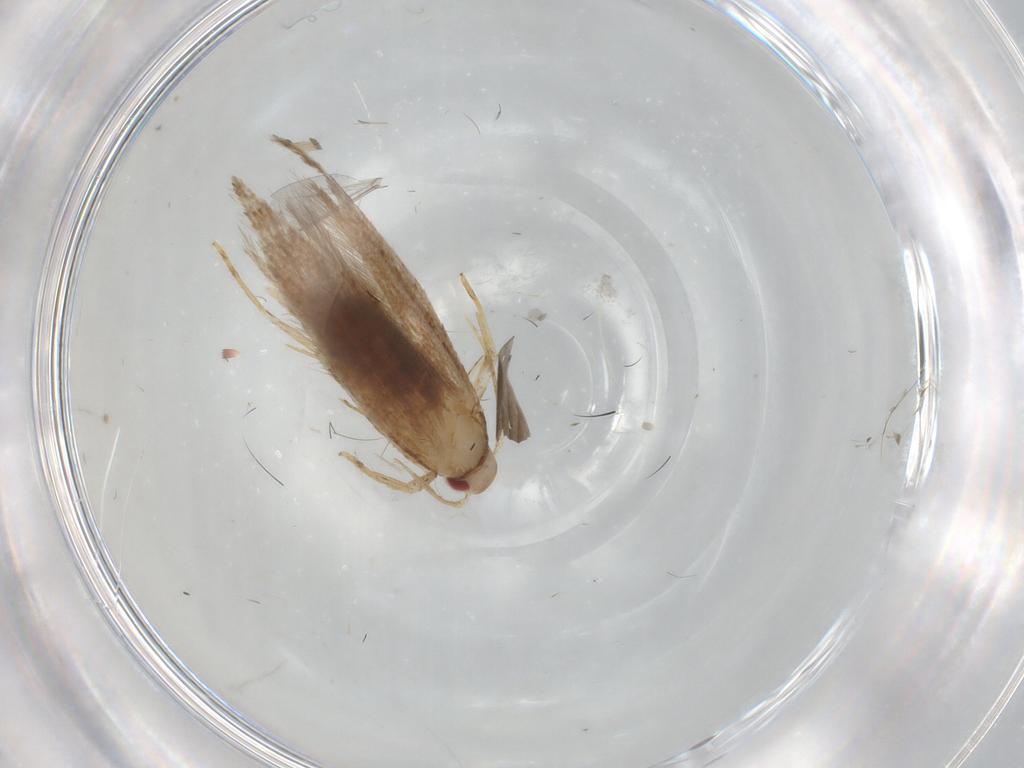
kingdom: Animalia
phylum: Arthropoda
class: Insecta
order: Lepidoptera
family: Cosmopterigidae
